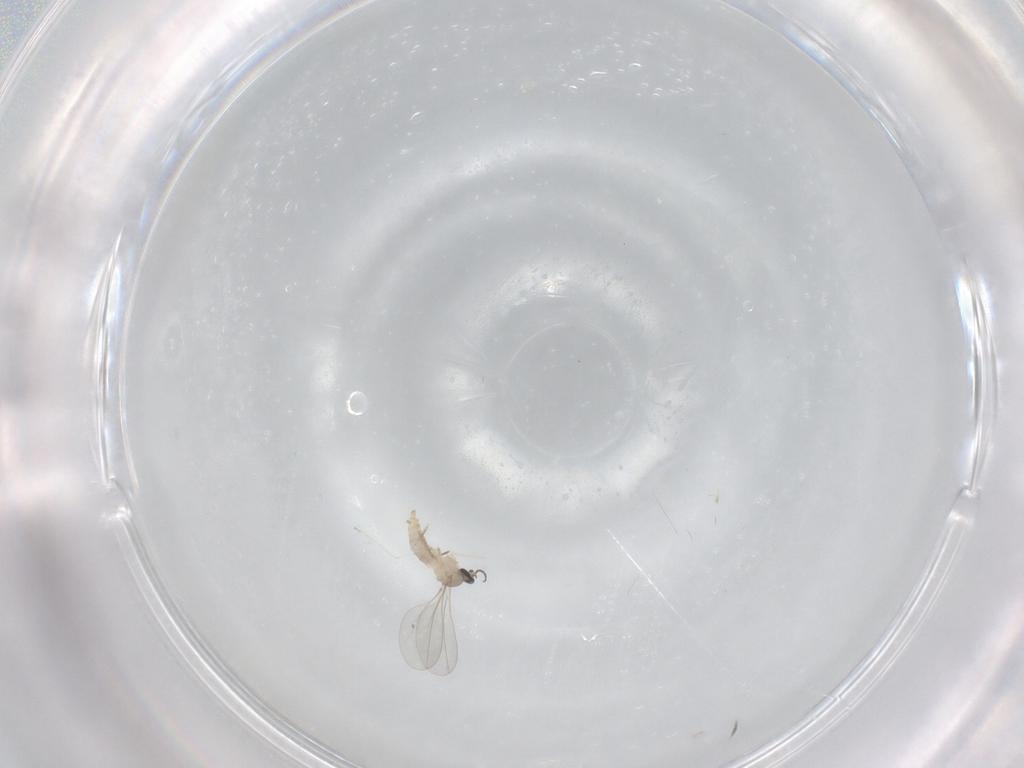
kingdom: Animalia
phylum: Arthropoda
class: Insecta
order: Diptera
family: Cecidomyiidae
